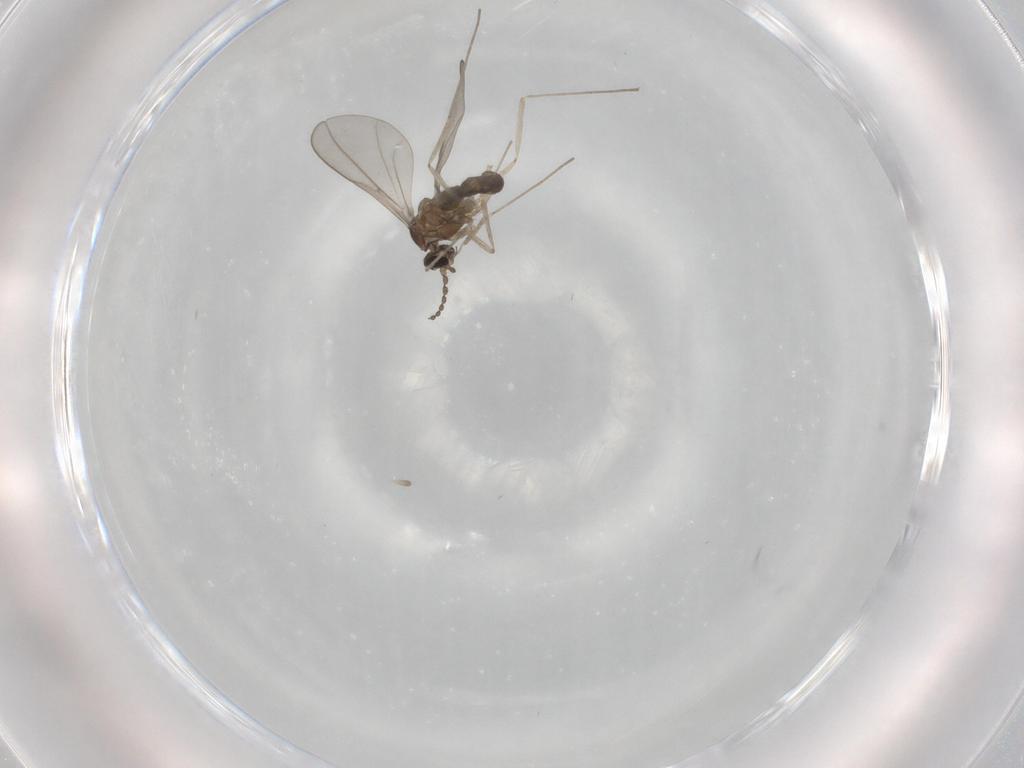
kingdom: Animalia
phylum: Arthropoda
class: Insecta
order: Diptera
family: Cecidomyiidae
